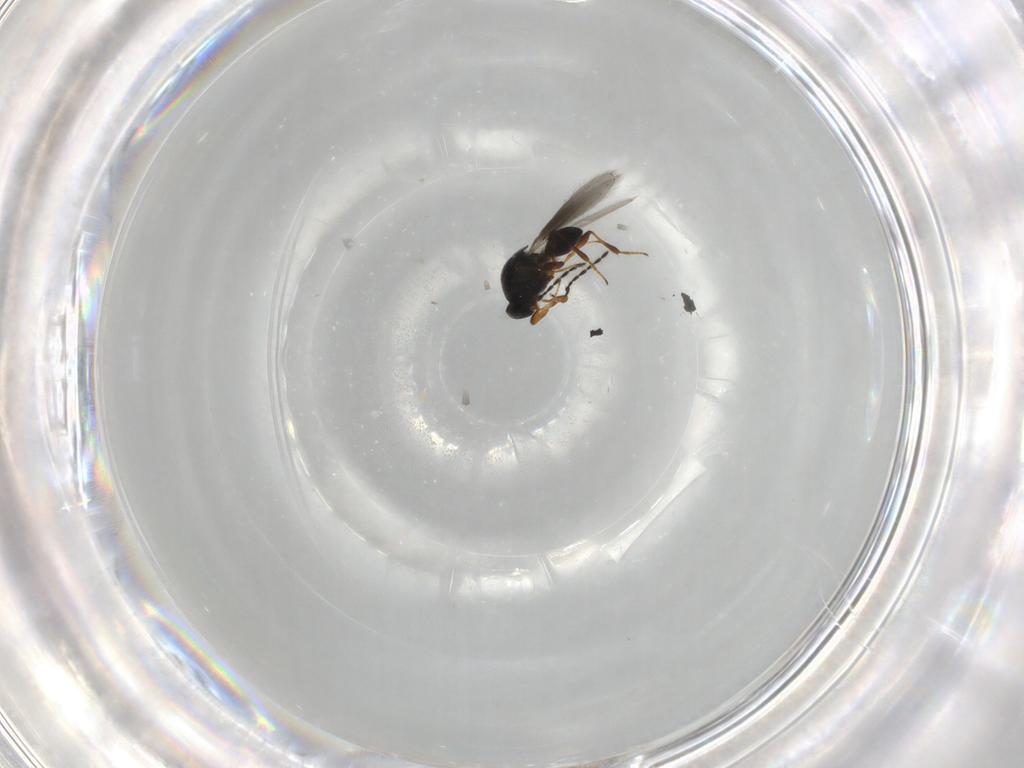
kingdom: Animalia
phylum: Arthropoda
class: Insecta
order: Hymenoptera
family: Platygastridae
